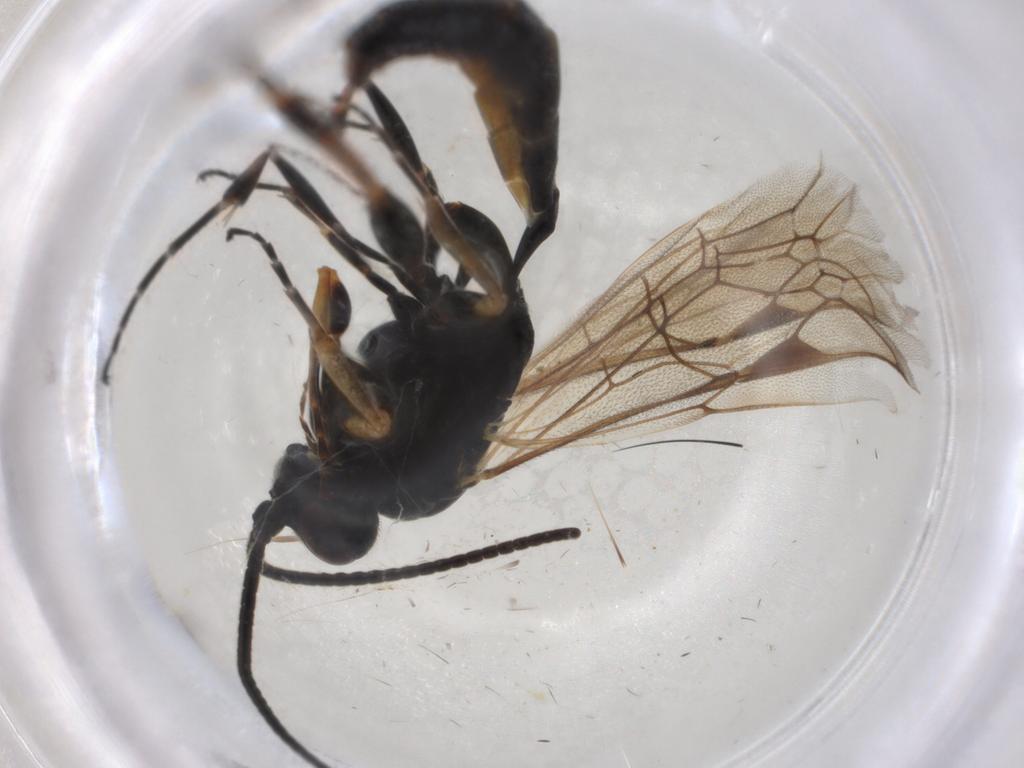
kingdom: Animalia
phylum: Arthropoda
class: Insecta
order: Hymenoptera
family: Ichneumonidae
